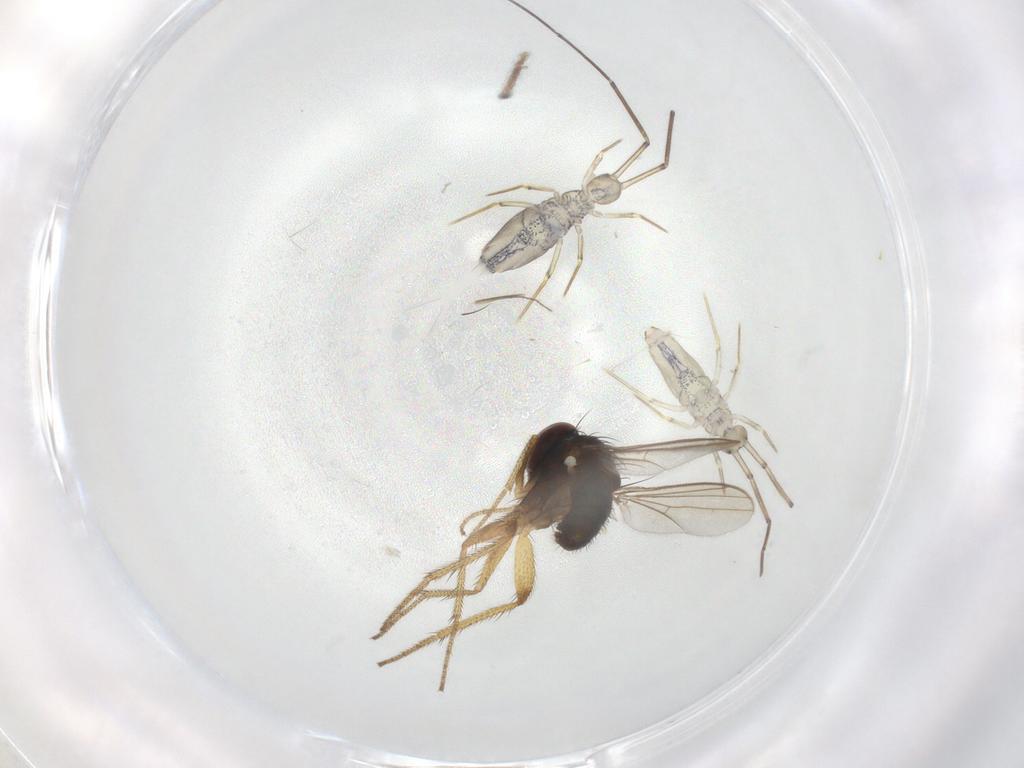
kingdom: Animalia
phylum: Arthropoda
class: Insecta
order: Diptera
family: Chironomidae
